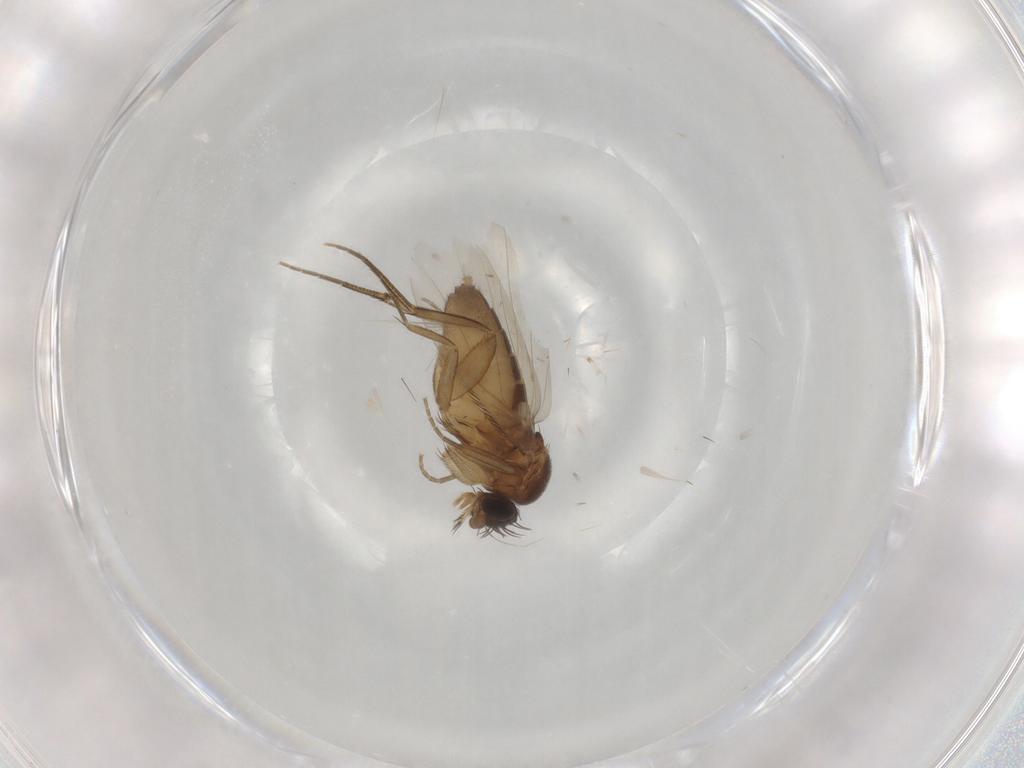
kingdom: Animalia
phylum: Arthropoda
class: Insecta
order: Diptera
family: Phoridae
